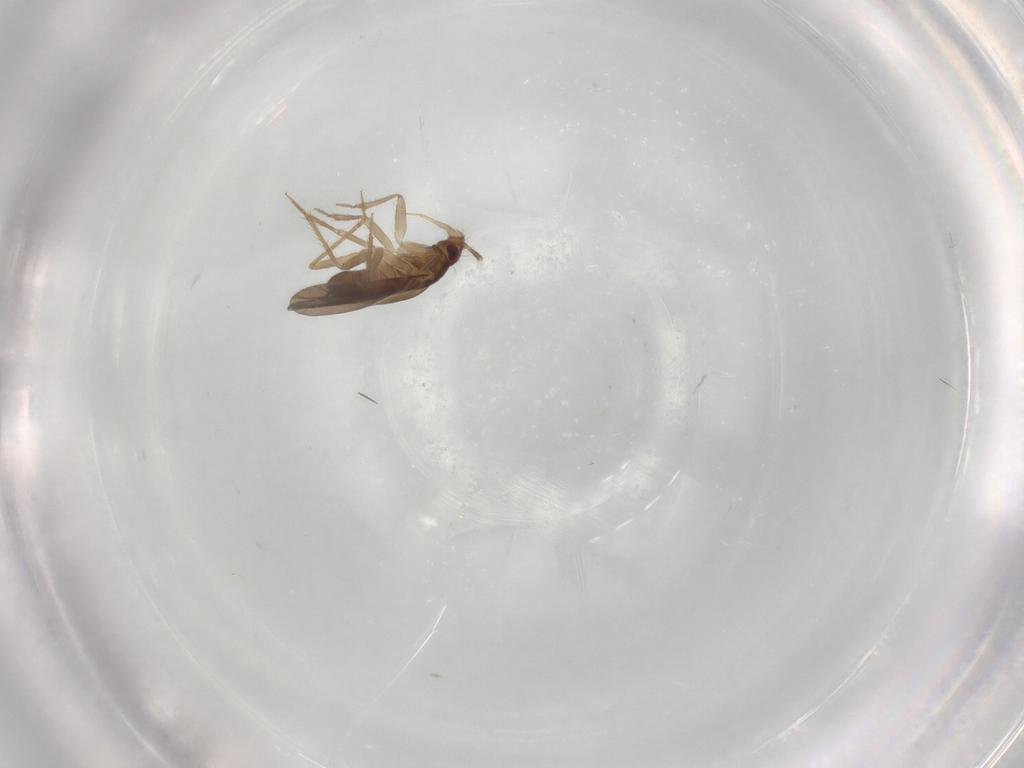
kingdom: Animalia
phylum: Arthropoda
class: Insecta
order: Hemiptera
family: Ceratocombidae
